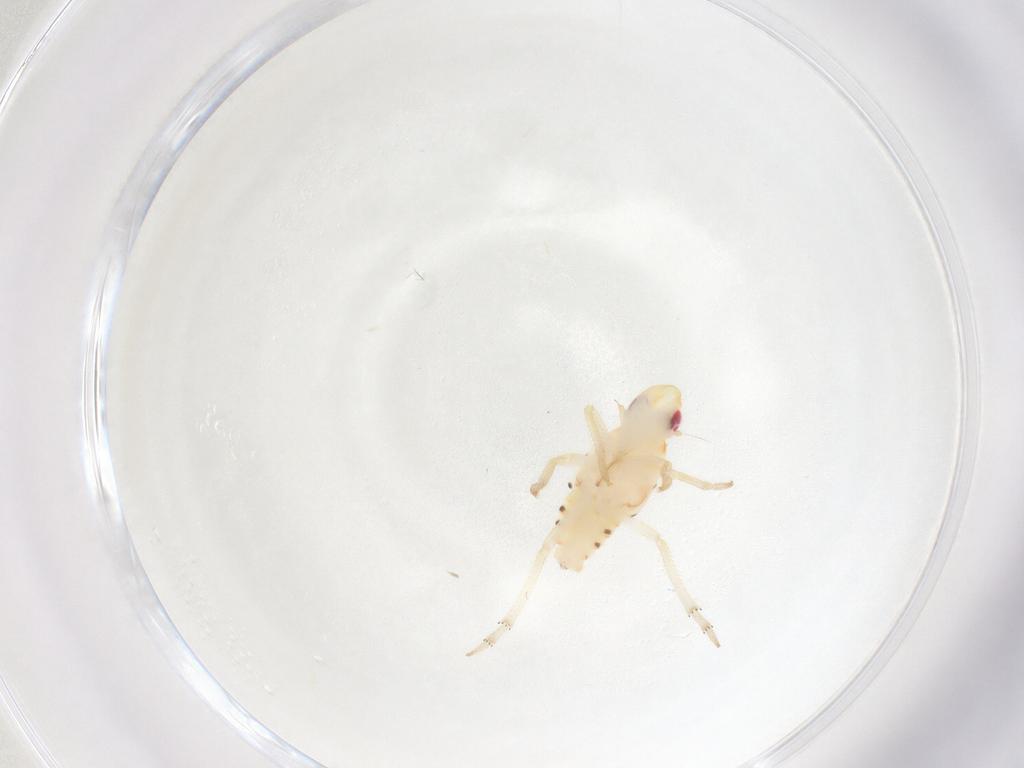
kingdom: Animalia
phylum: Arthropoda
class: Insecta
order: Hemiptera
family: Tropiduchidae
